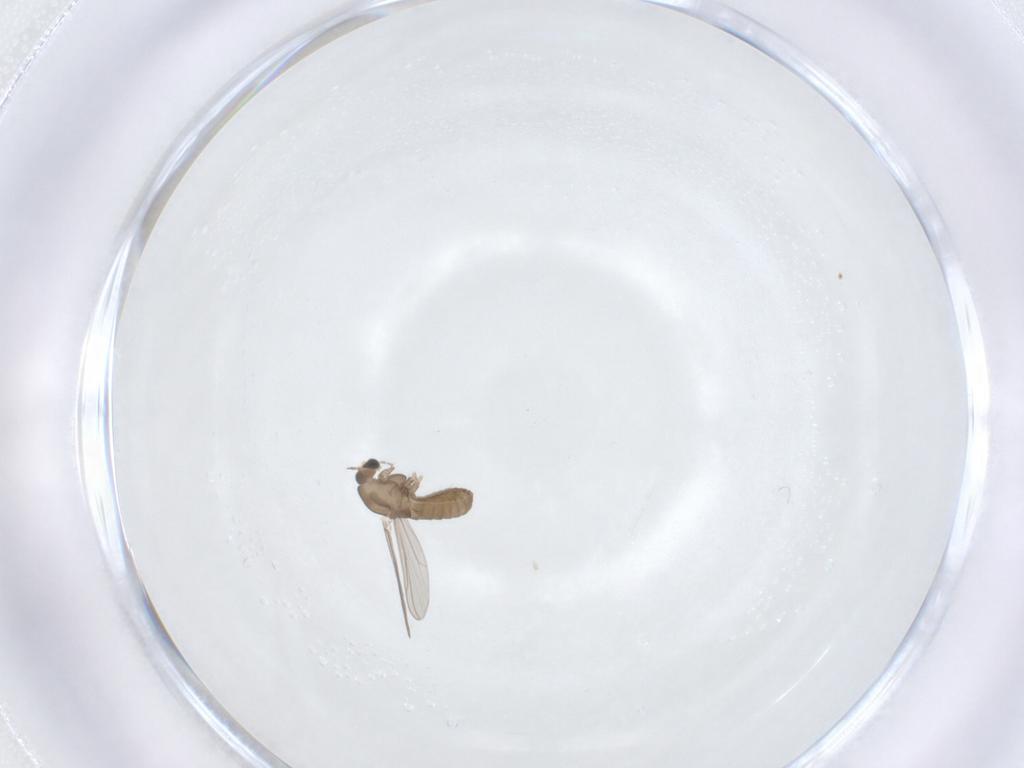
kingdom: Animalia
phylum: Arthropoda
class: Insecta
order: Diptera
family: Chironomidae
